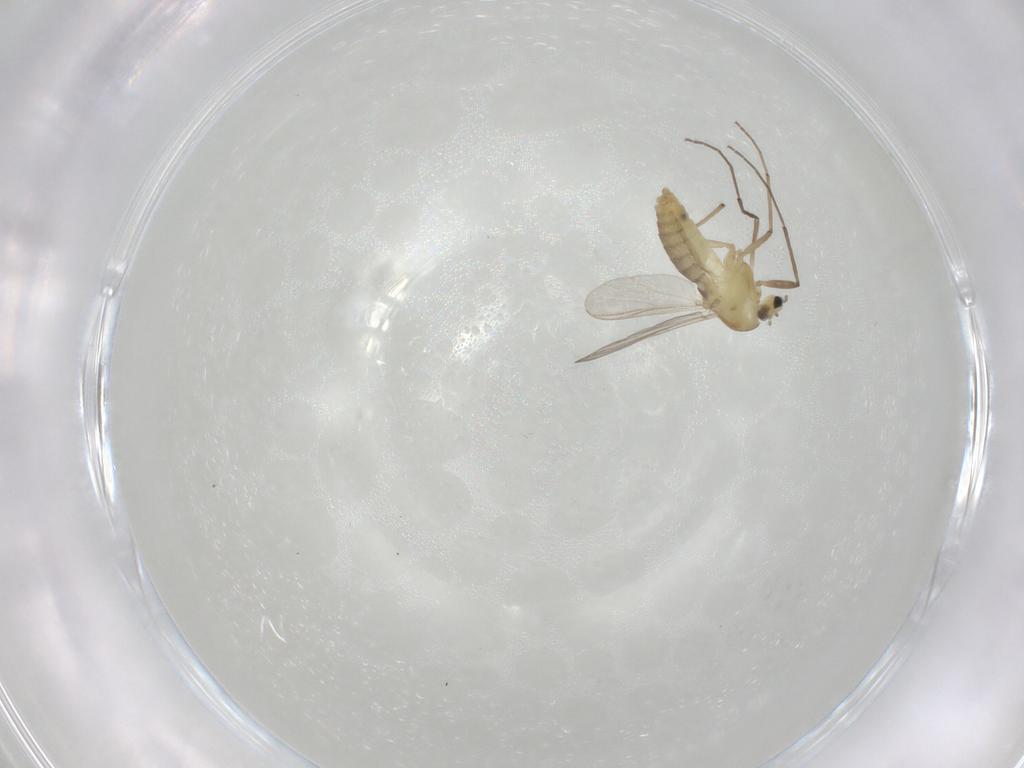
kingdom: Animalia
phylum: Arthropoda
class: Insecta
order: Diptera
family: Chironomidae
